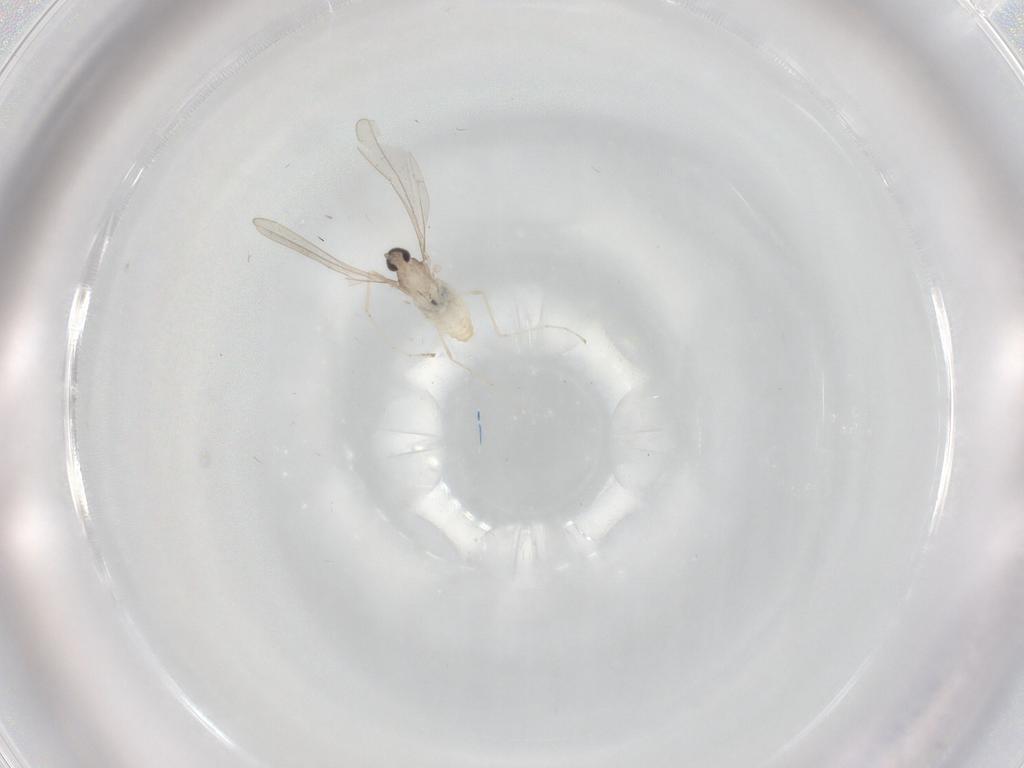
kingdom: Animalia
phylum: Arthropoda
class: Insecta
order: Diptera
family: Cecidomyiidae
